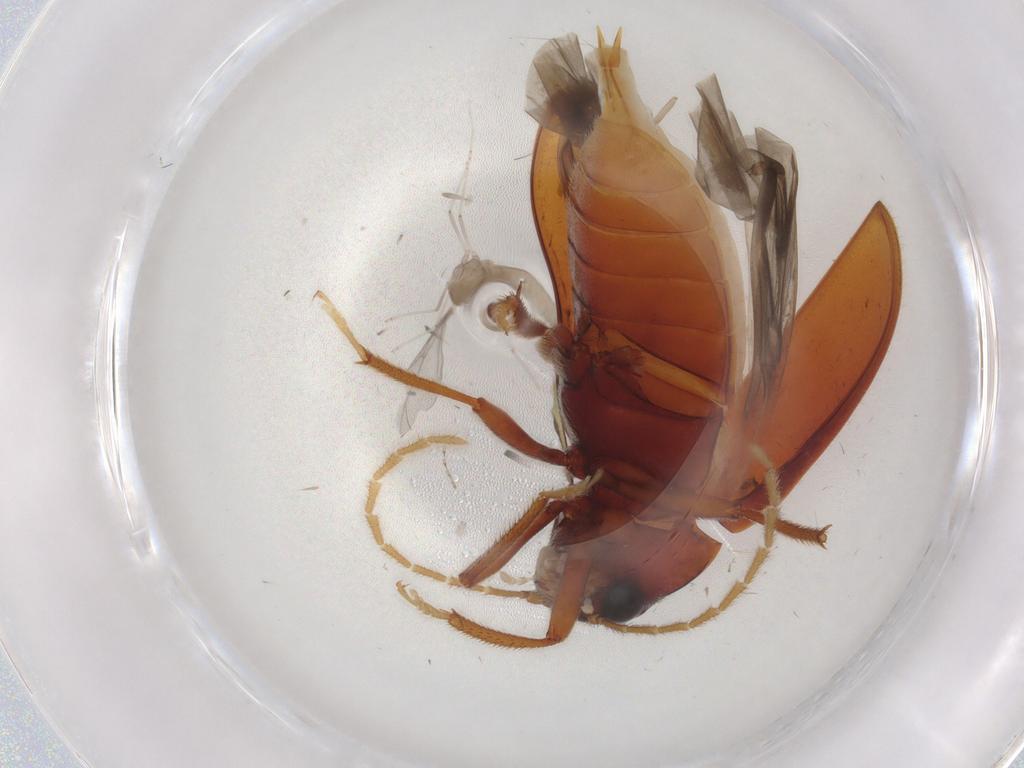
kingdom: Animalia
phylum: Arthropoda
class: Insecta
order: Diptera
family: Cecidomyiidae
